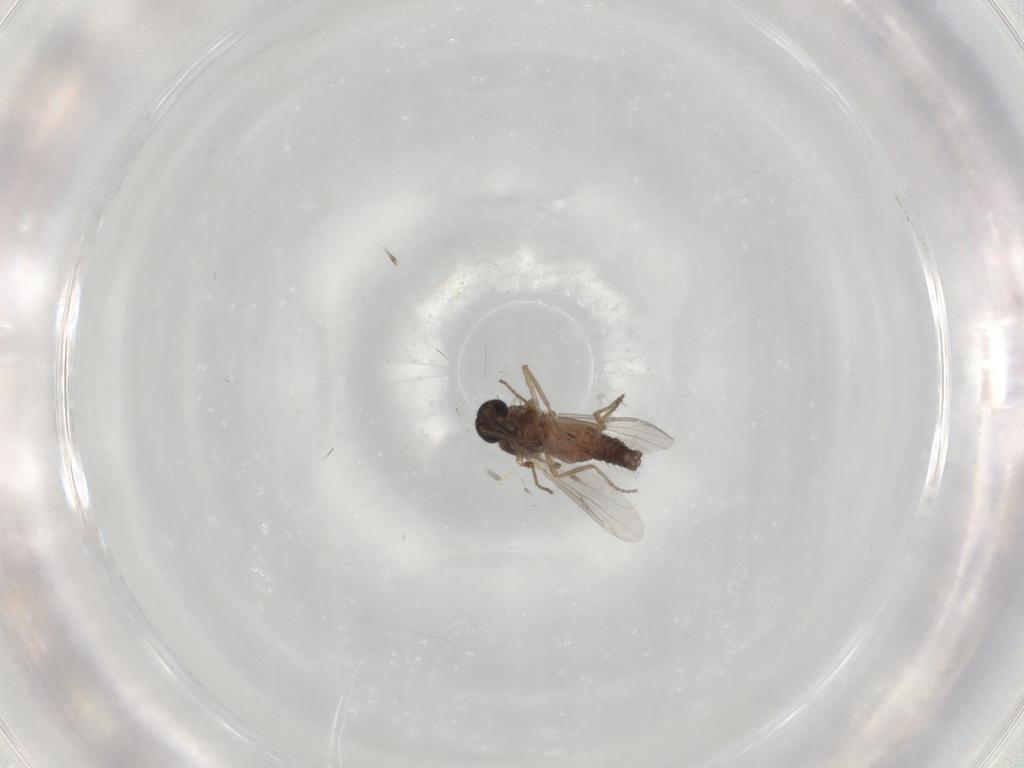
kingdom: Animalia
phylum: Arthropoda
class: Insecta
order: Diptera
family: Ceratopogonidae
